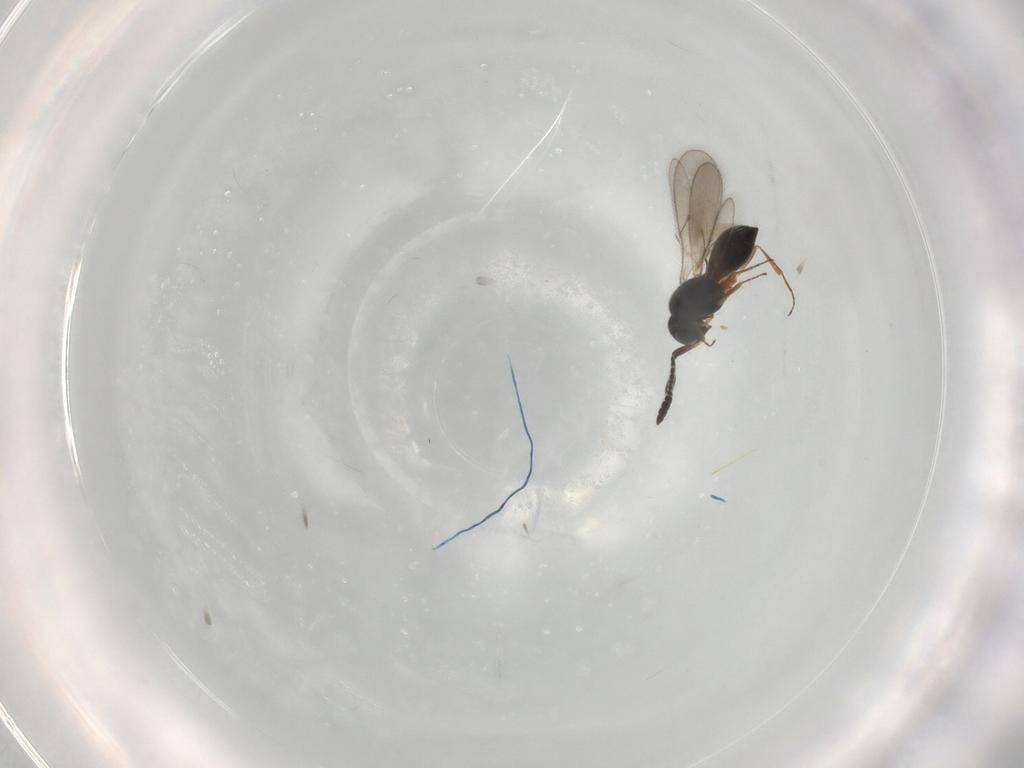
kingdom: Animalia
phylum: Arthropoda
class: Insecta
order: Hymenoptera
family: Scelionidae
